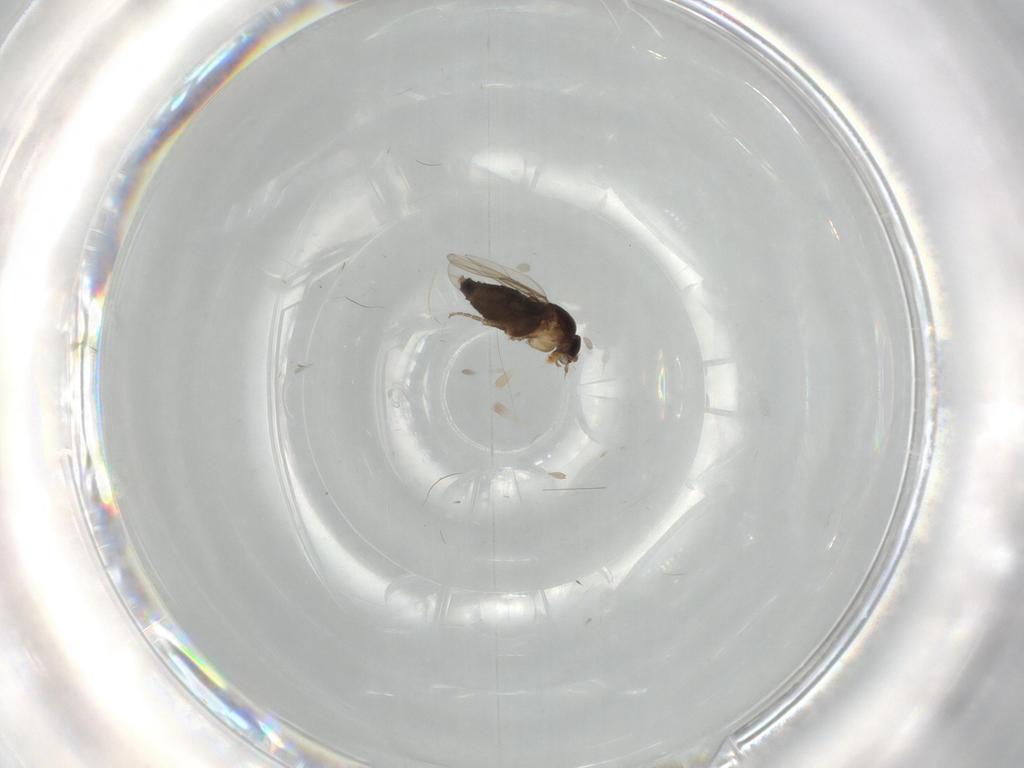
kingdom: Animalia
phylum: Arthropoda
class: Insecta
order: Diptera
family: Phoridae
